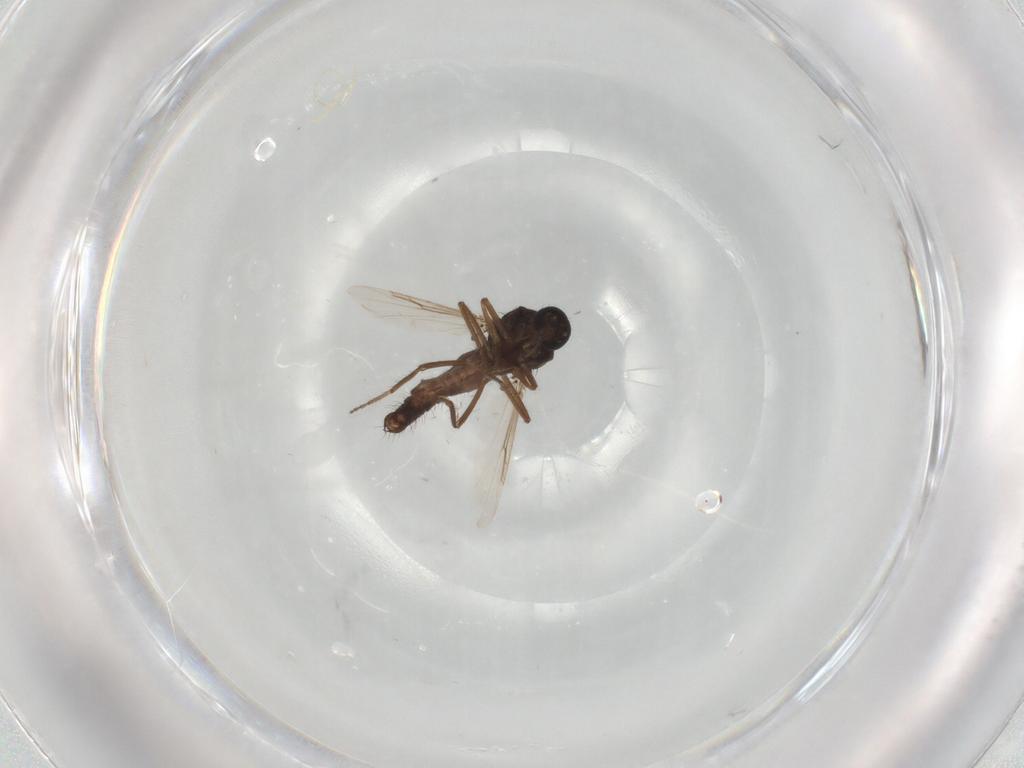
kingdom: Animalia
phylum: Arthropoda
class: Insecta
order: Diptera
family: Ceratopogonidae
